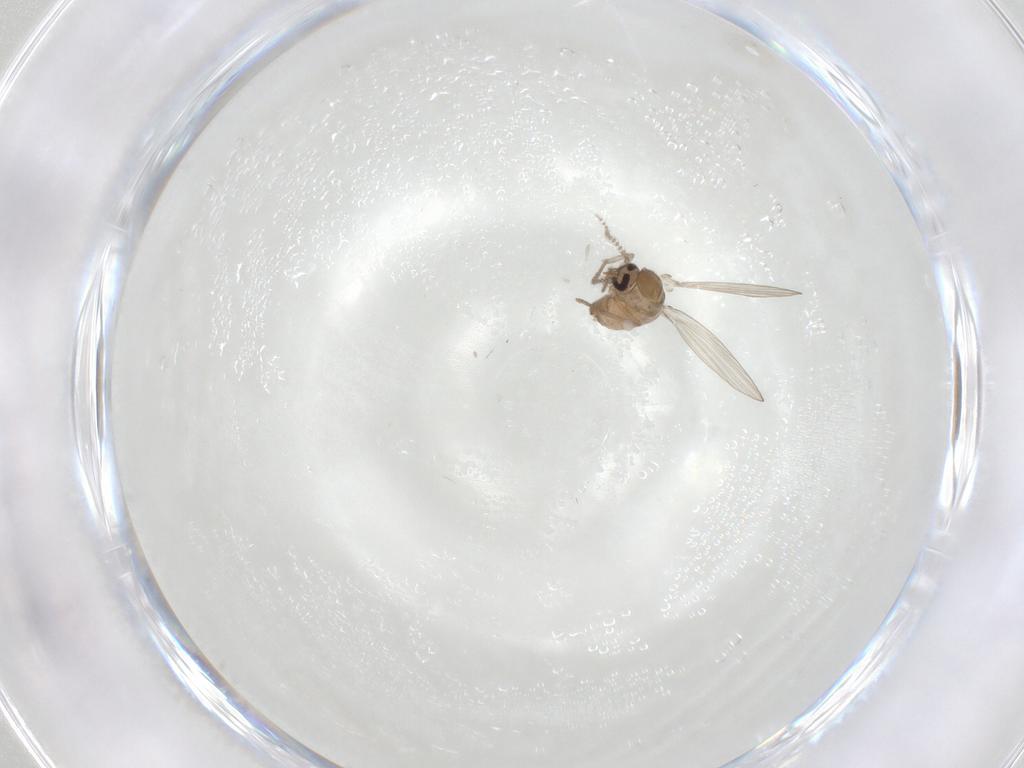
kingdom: Animalia
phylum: Arthropoda
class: Insecta
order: Diptera
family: Psychodidae
